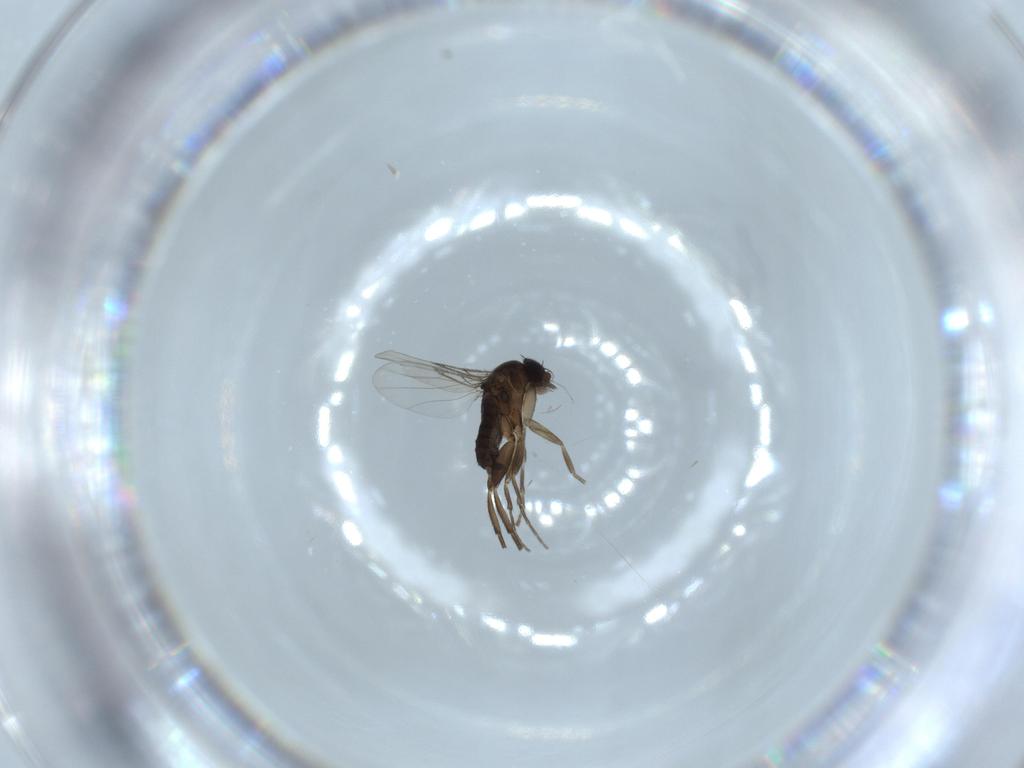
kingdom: Animalia
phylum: Arthropoda
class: Insecta
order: Diptera
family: Phoridae
